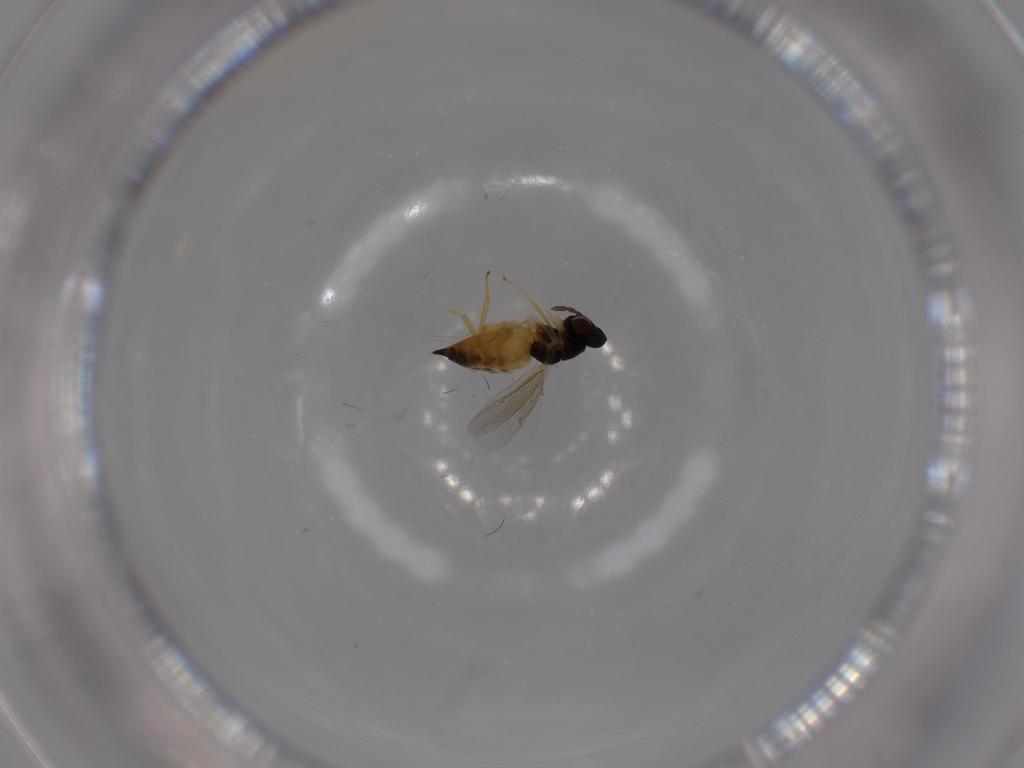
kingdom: Animalia
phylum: Arthropoda
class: Insecta
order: Hymenoptera
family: Eulophidae
